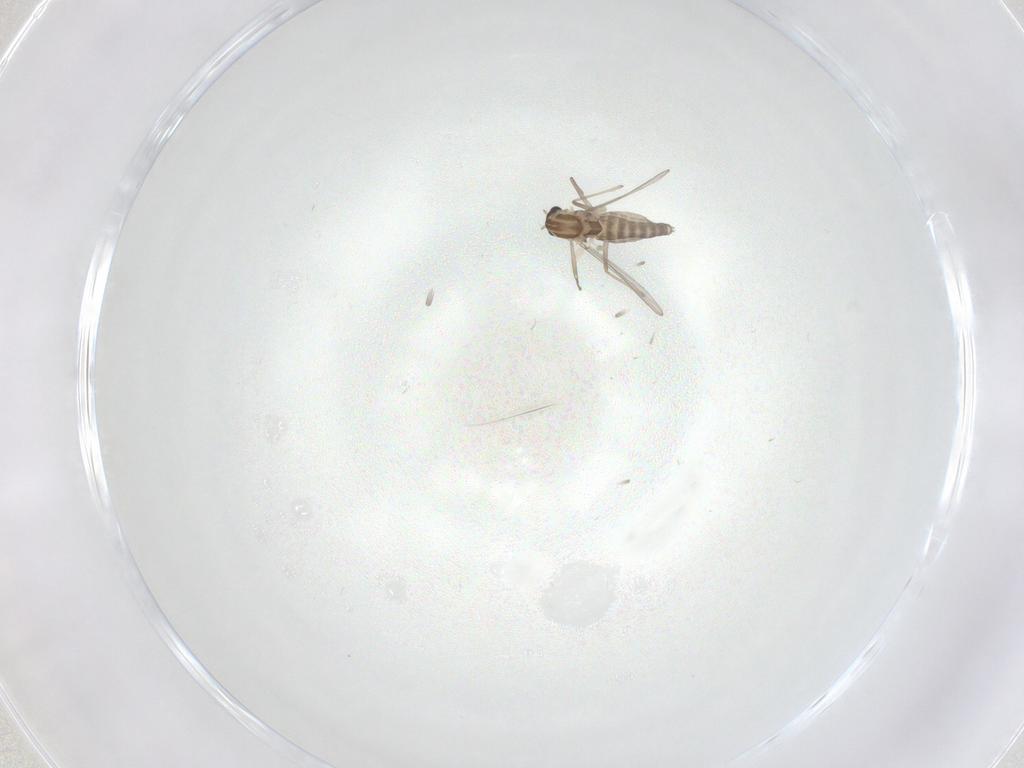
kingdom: Animalia
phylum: Arthropoda
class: Insecta
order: Diptera
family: Chironomidae
